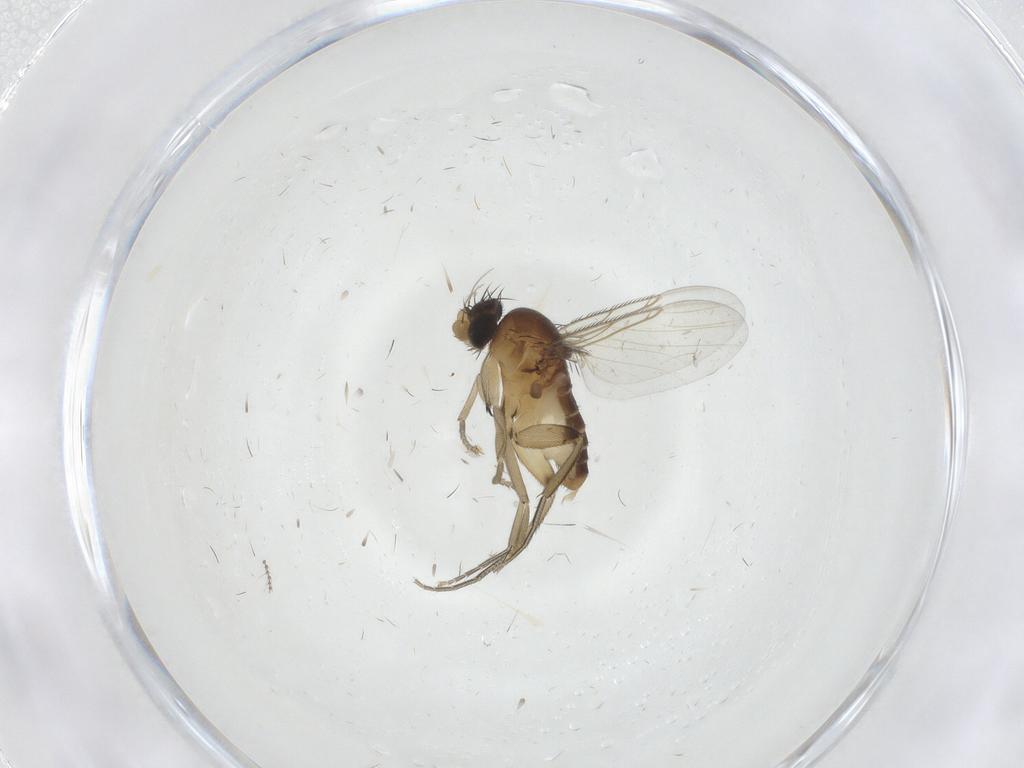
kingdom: Animalia
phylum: Arthropoda
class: Insecta
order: Diptera
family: Phoridae
